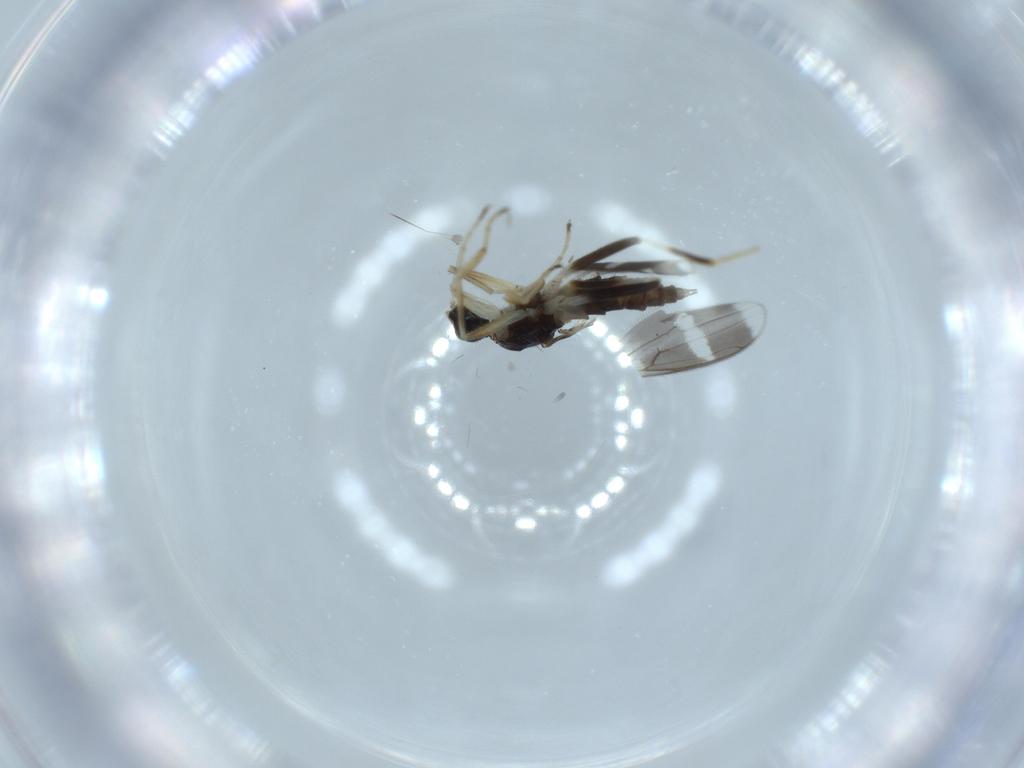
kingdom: Animalia
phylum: Arthropoda
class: Insecta
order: Diptera
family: Hybotidae
